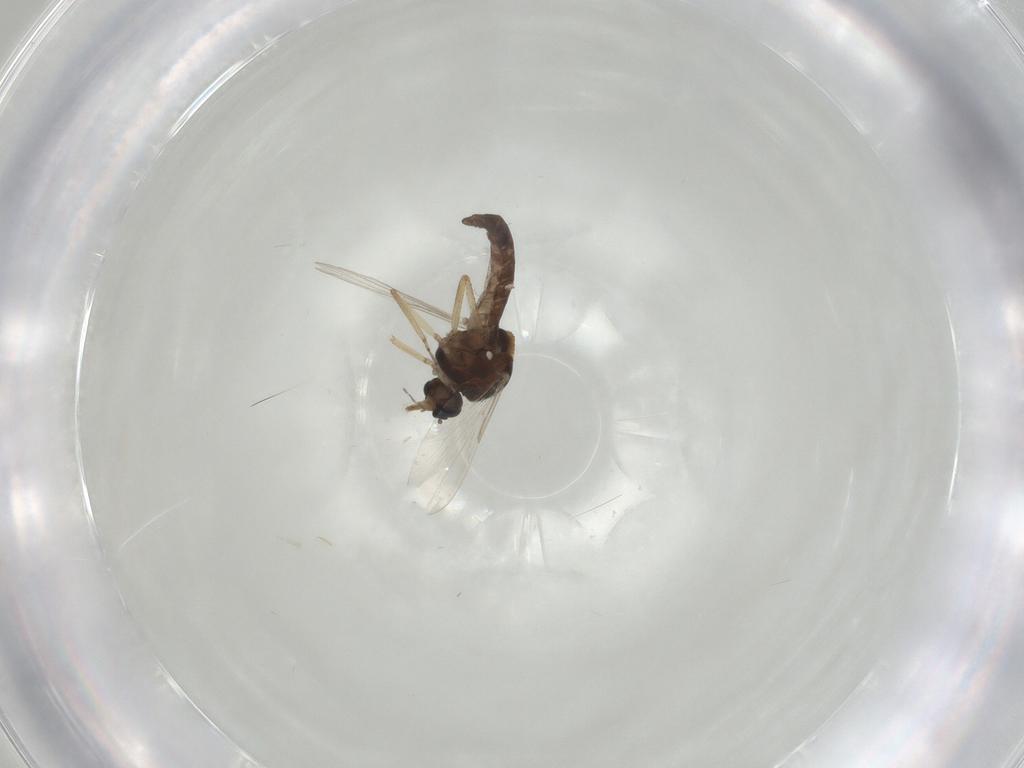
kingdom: Animalia
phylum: Arthropoda
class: Insecta
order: Diptera
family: Ceratopogonidae
